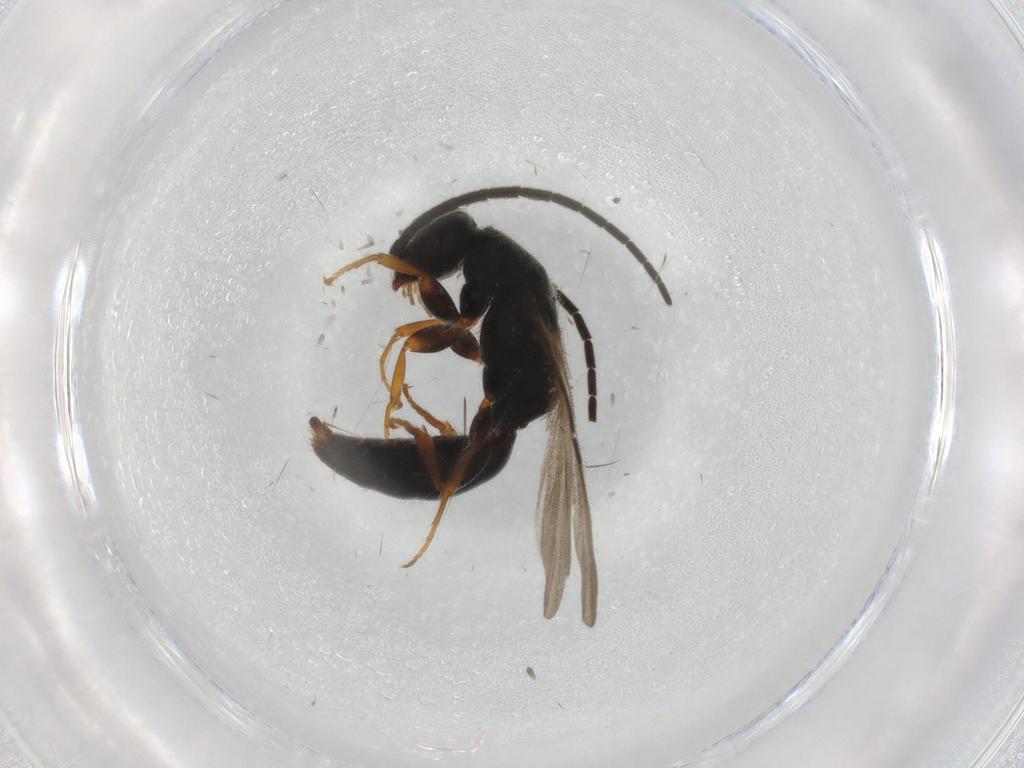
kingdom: Animalia
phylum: Arthropoda
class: Insecta
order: Hymenoptera
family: Bethylidae
